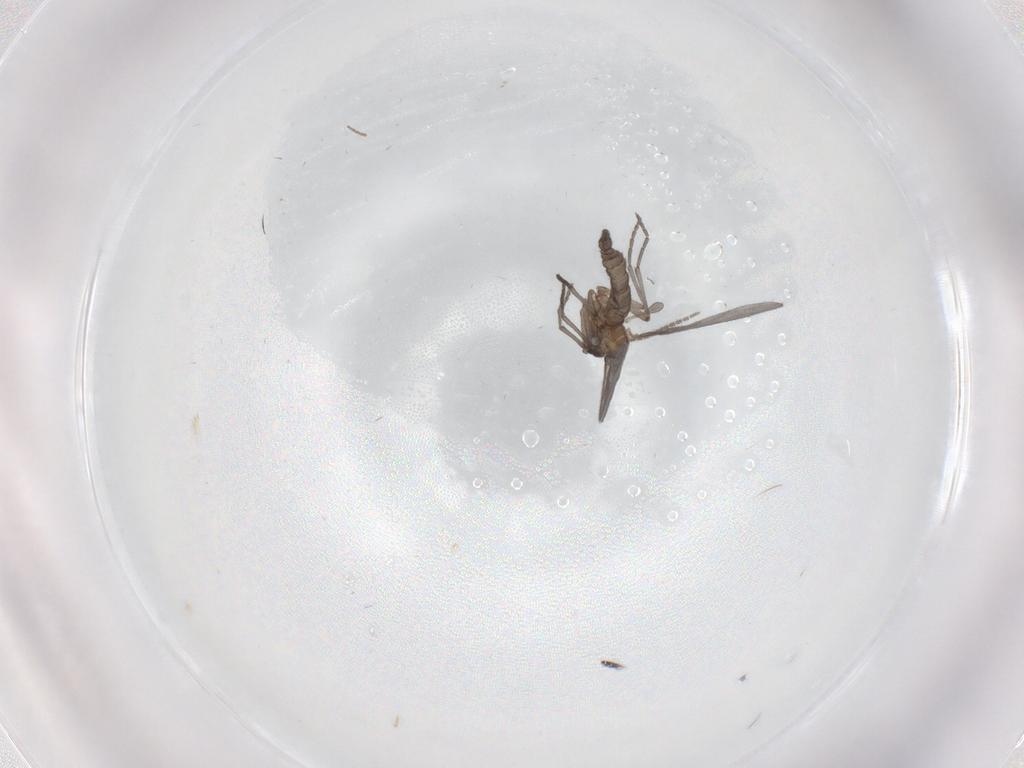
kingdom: Animalia
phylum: Arthropoda
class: Insecta
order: Diptera
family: Sciaridae
